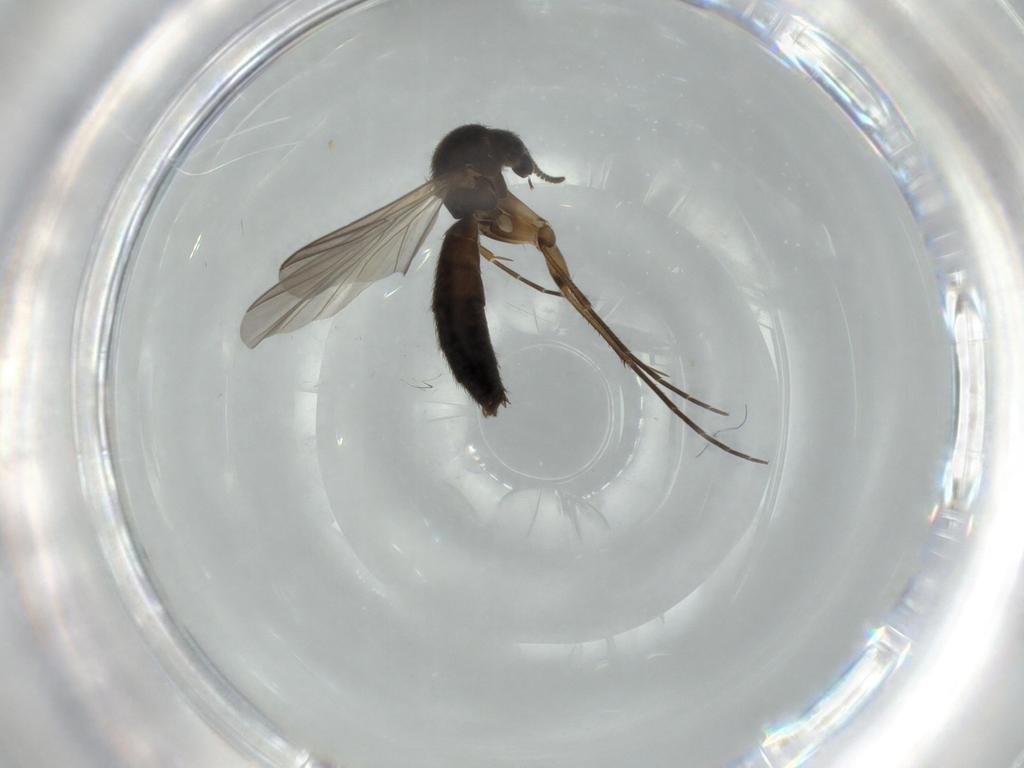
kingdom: Animalia
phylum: Arthropoda
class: Insecta
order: Diptera
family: Mycetophilidae
